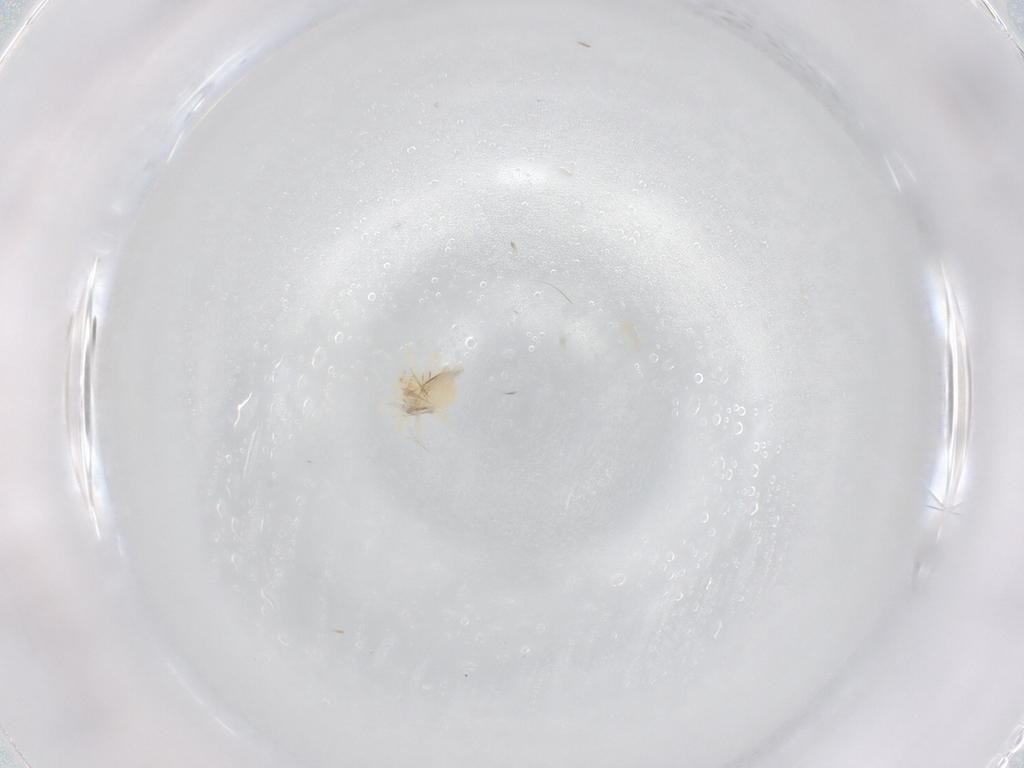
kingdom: Animalia
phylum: Arthropoda
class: Arachnida
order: Trombidiformes
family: Anystidae
